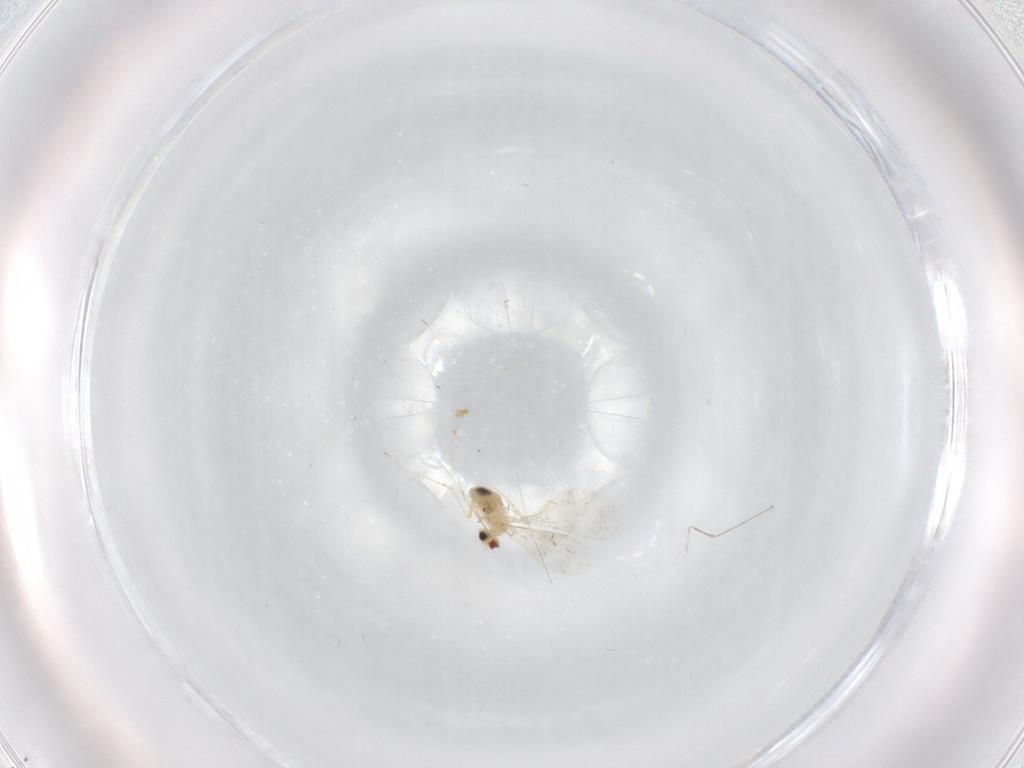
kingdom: Animalia
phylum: Arthropoda
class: Insecta
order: Diptera
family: Cecidomyiidae
